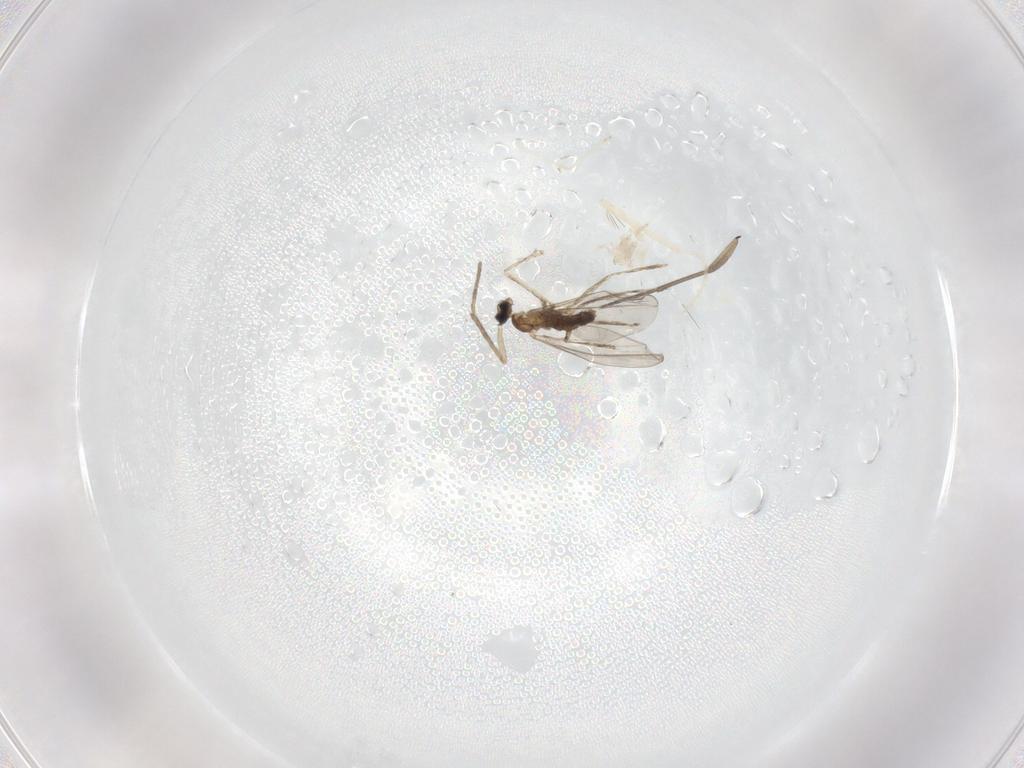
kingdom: Animalia
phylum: Arthropoda
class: Insecta
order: Diptera
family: Cecidomyiidae
